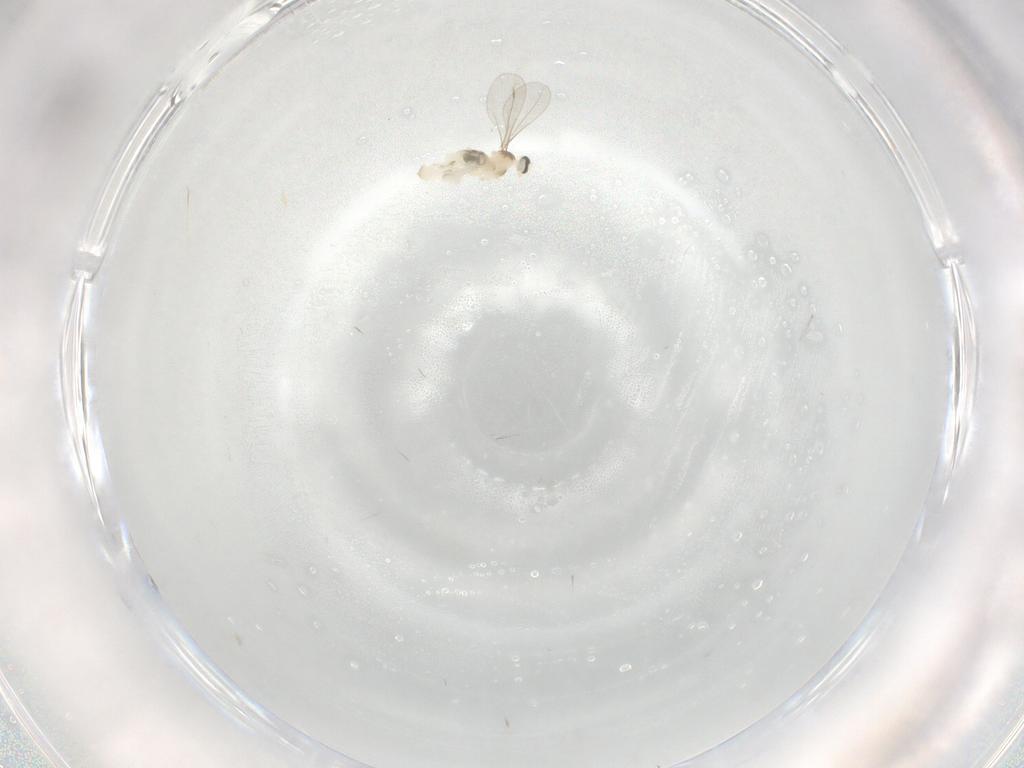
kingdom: Animalia
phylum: Arthropoda
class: Insecta
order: Diptera
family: Cecidomyiidae
